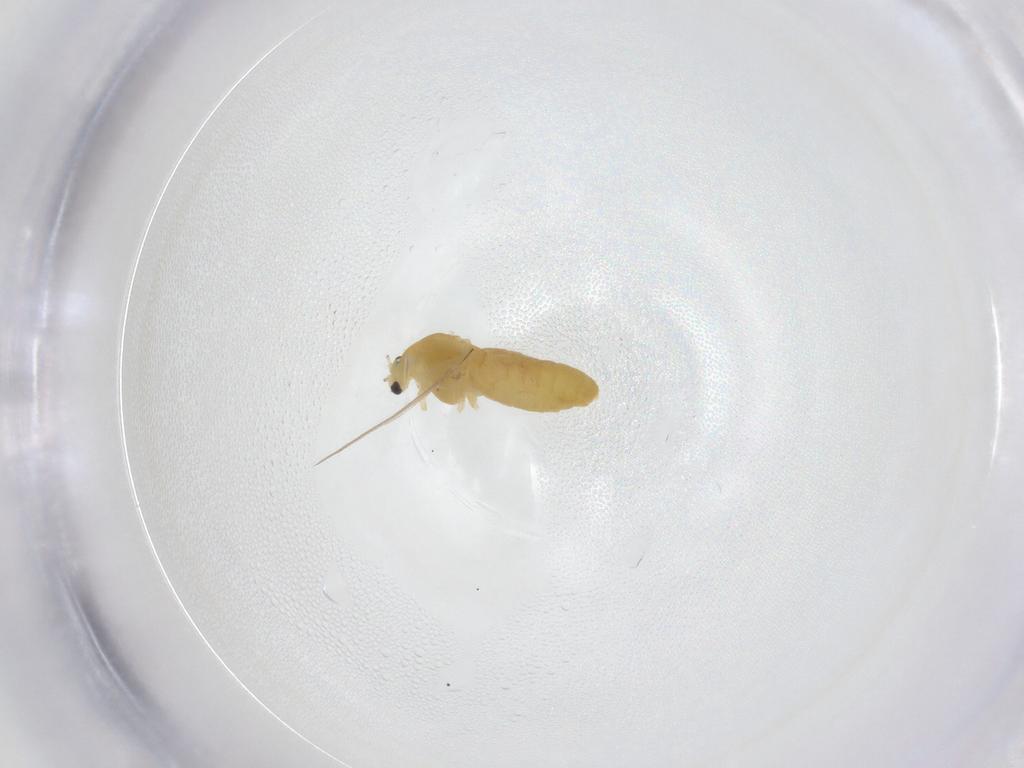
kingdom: Animalia
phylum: Arthropoda
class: Insecta
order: Diptera
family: Chironomidae
